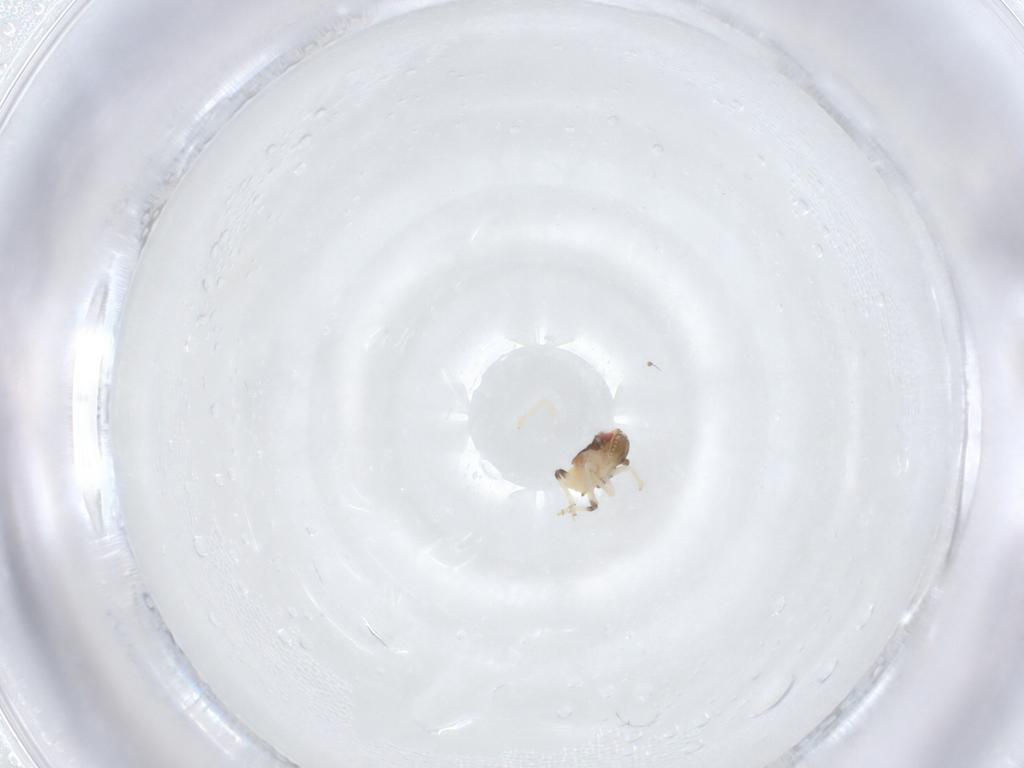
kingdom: Animalia
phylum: Arthropoda
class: Insecta
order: Hemiptera
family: Nogodinidae
